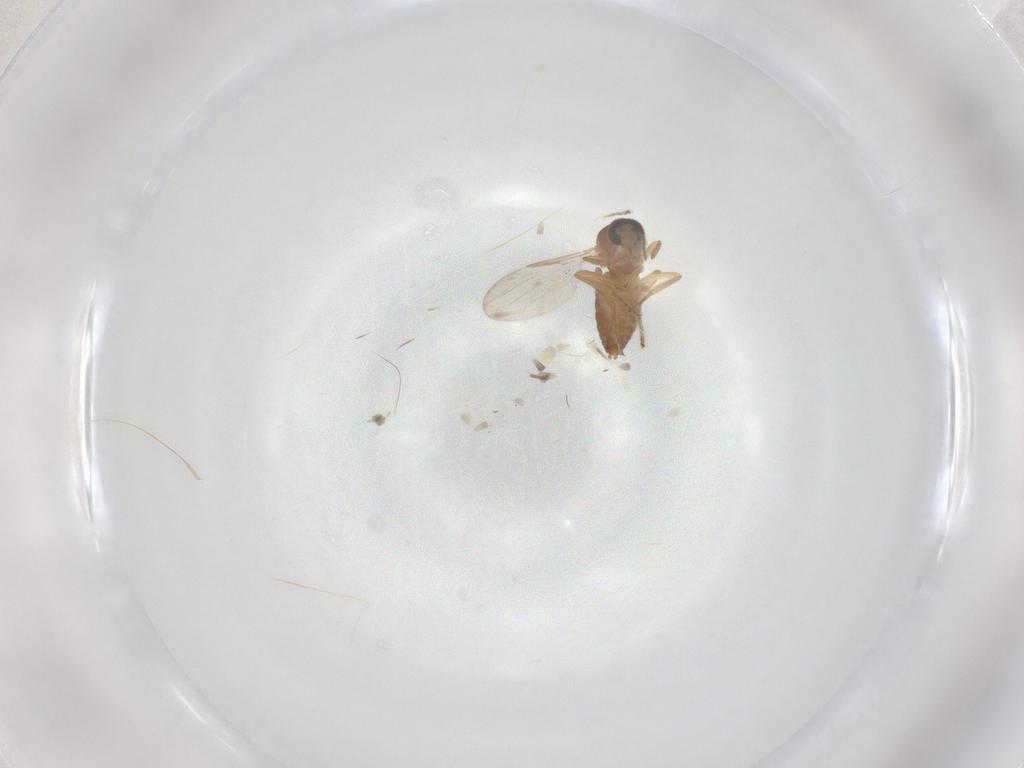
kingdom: Animalia
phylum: Arthropoda
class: Insecta
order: Diptera
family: Ceratopogonidae
